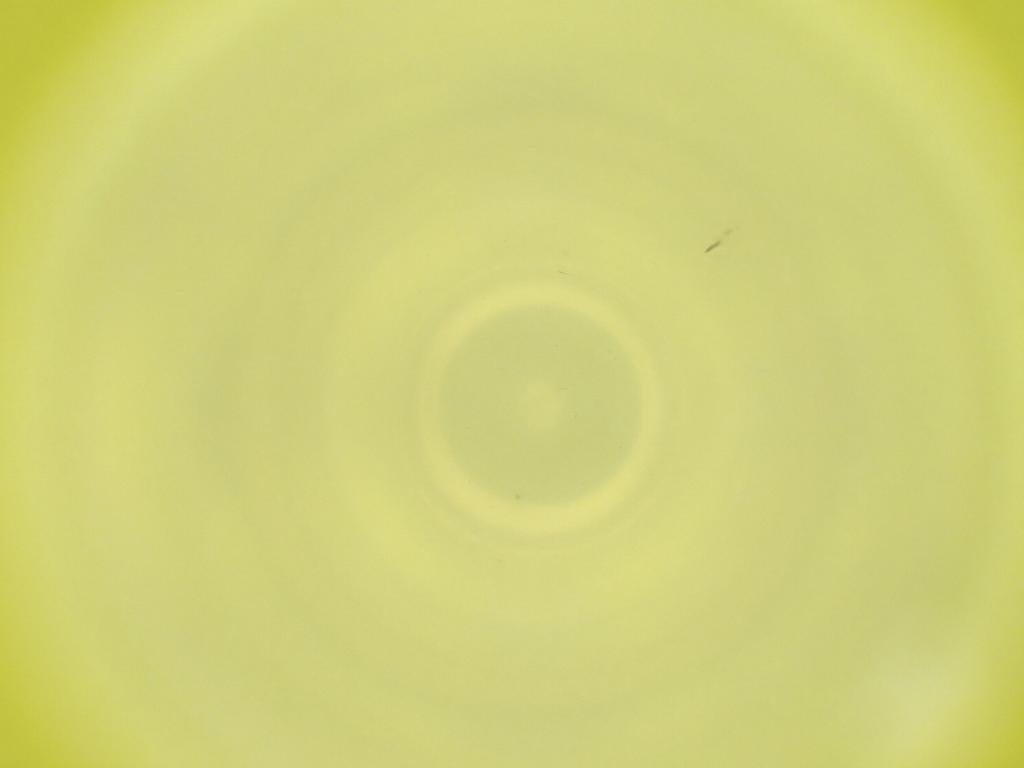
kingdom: Animalia
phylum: Arthropoda
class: Insecta
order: Diptera
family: Cecidomyiidae
